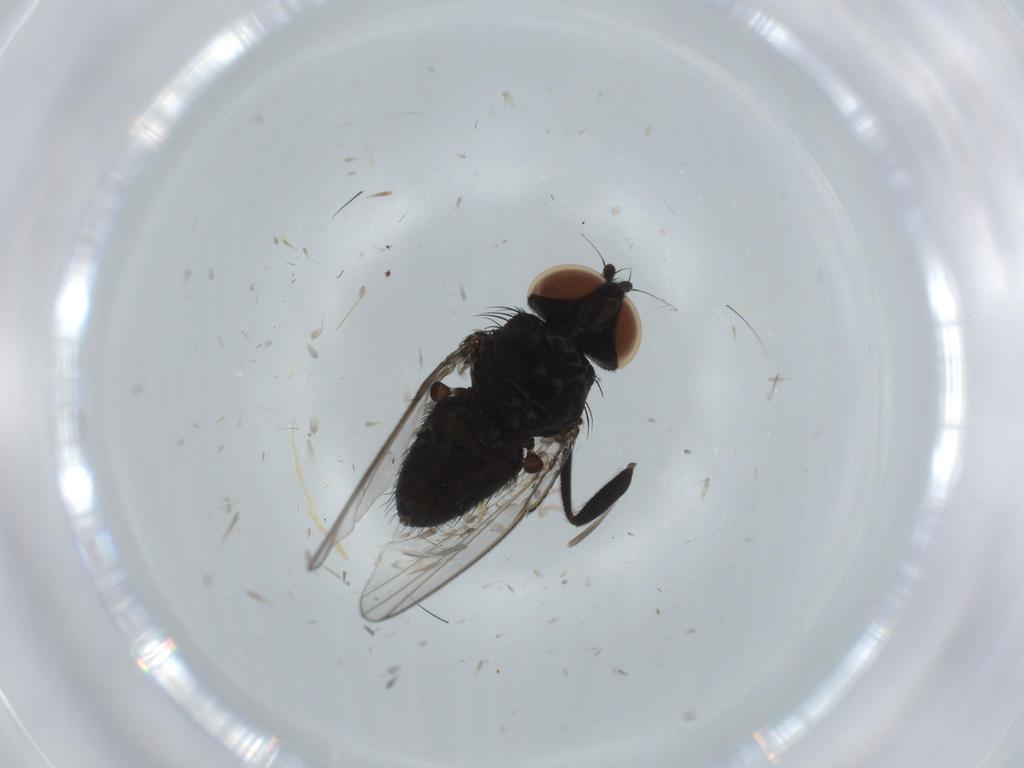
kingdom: Animalia
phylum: Arthropoda
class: Insecta
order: Diptera
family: Milichiidae
